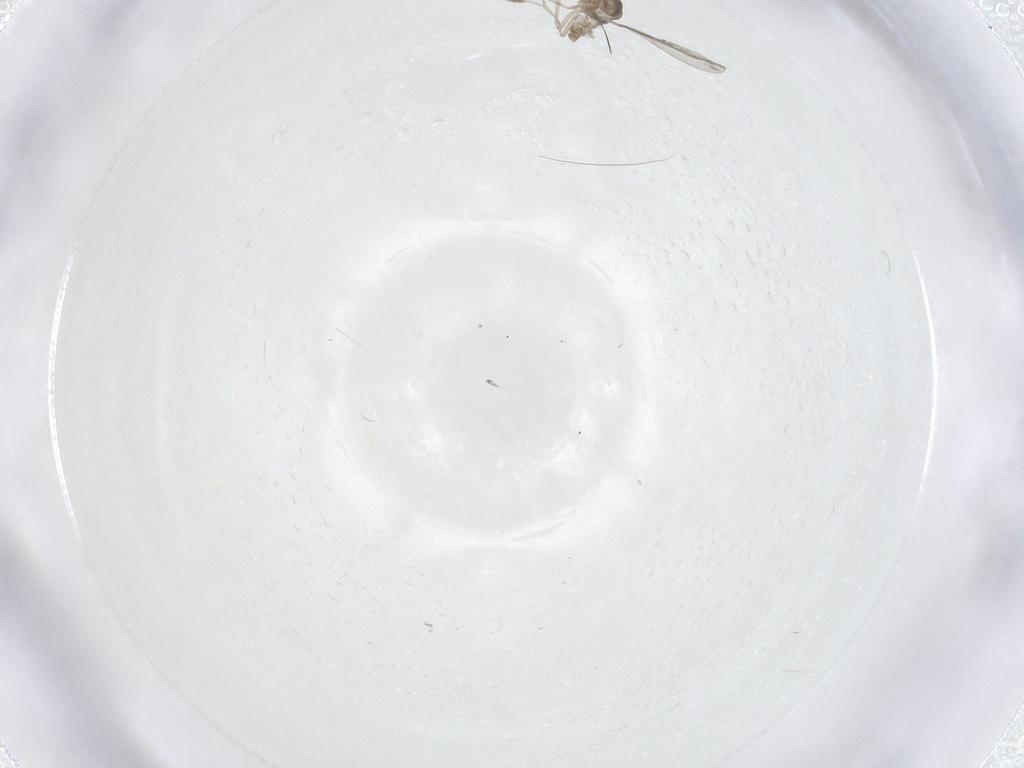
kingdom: Animalia
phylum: Arthropoda
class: Insecta
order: Diptera
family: Cecidomyiidae
